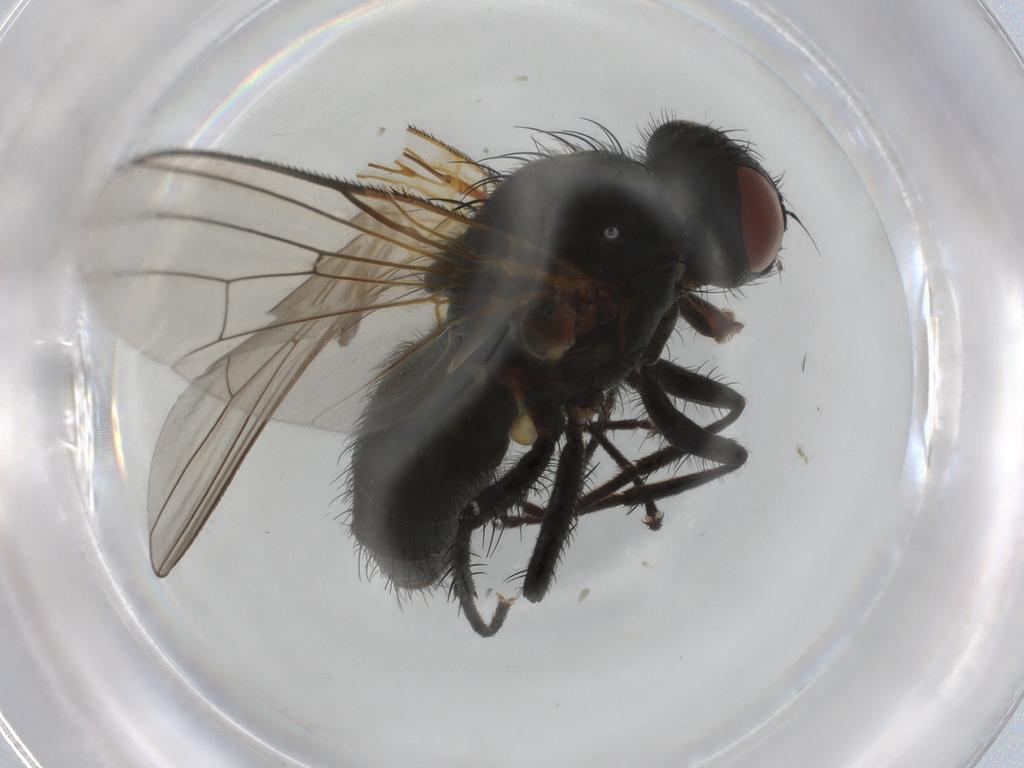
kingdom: Animalia
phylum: Arthropoda
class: Insecta
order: Diptera
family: Anthomyiidae
